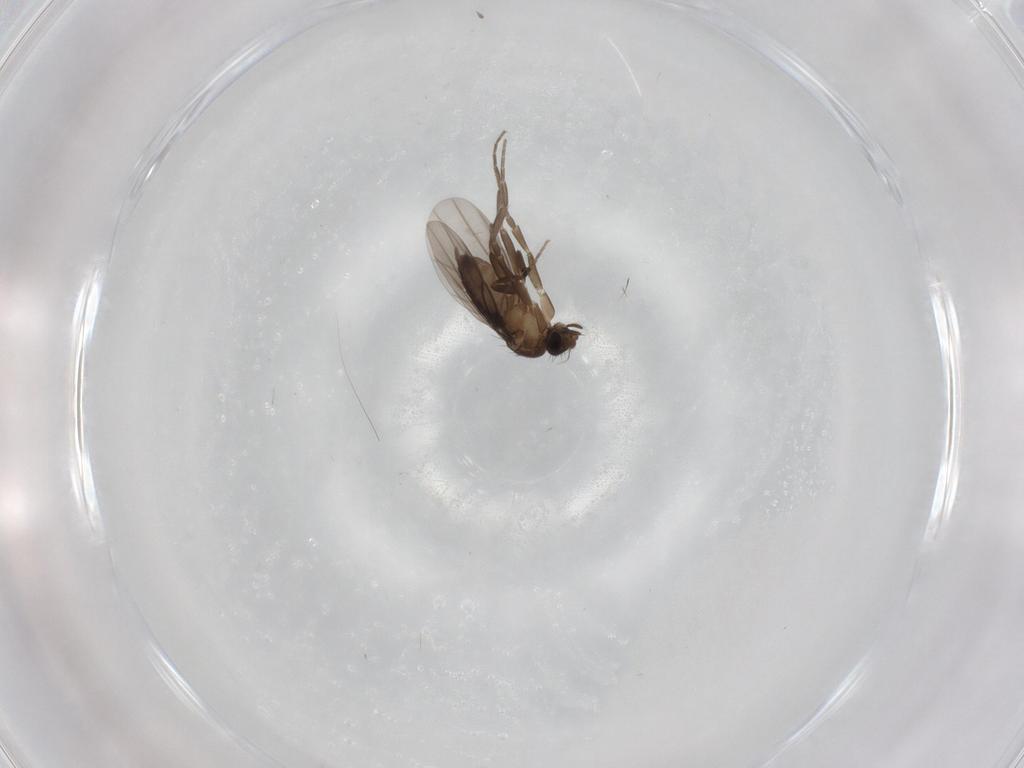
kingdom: Animalia
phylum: Arthropoda
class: Insecta
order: Diptera
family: Phoridae
